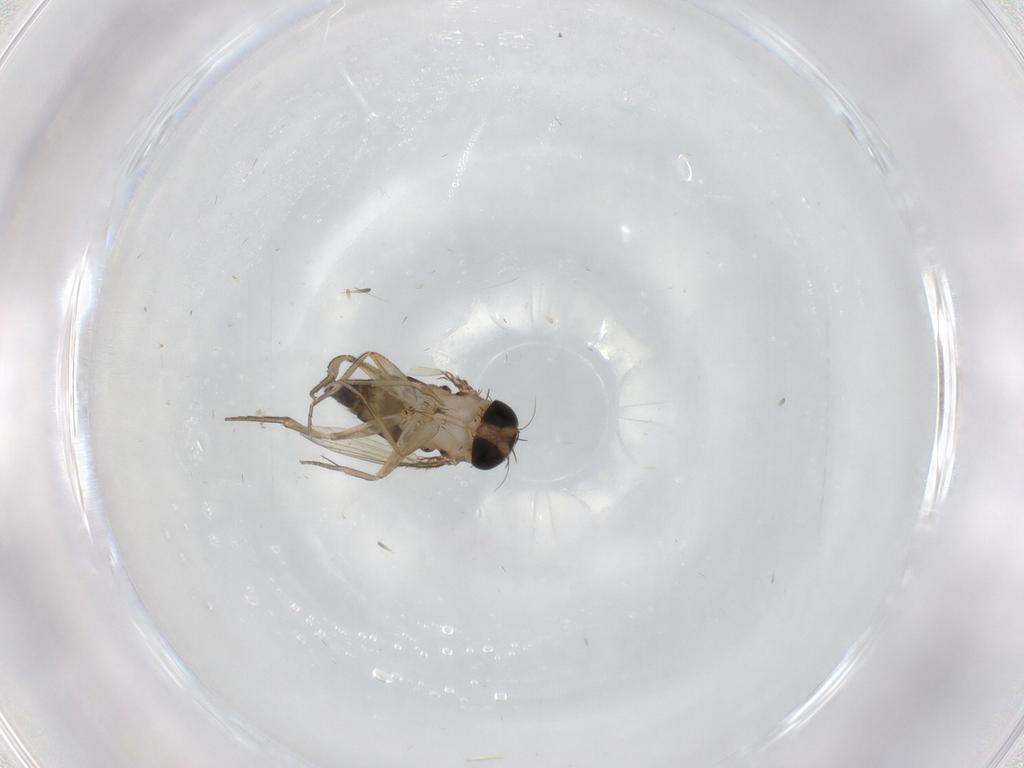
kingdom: Animalia
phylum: Arthropoda
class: Insecta
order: Diptera
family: Phoridae
